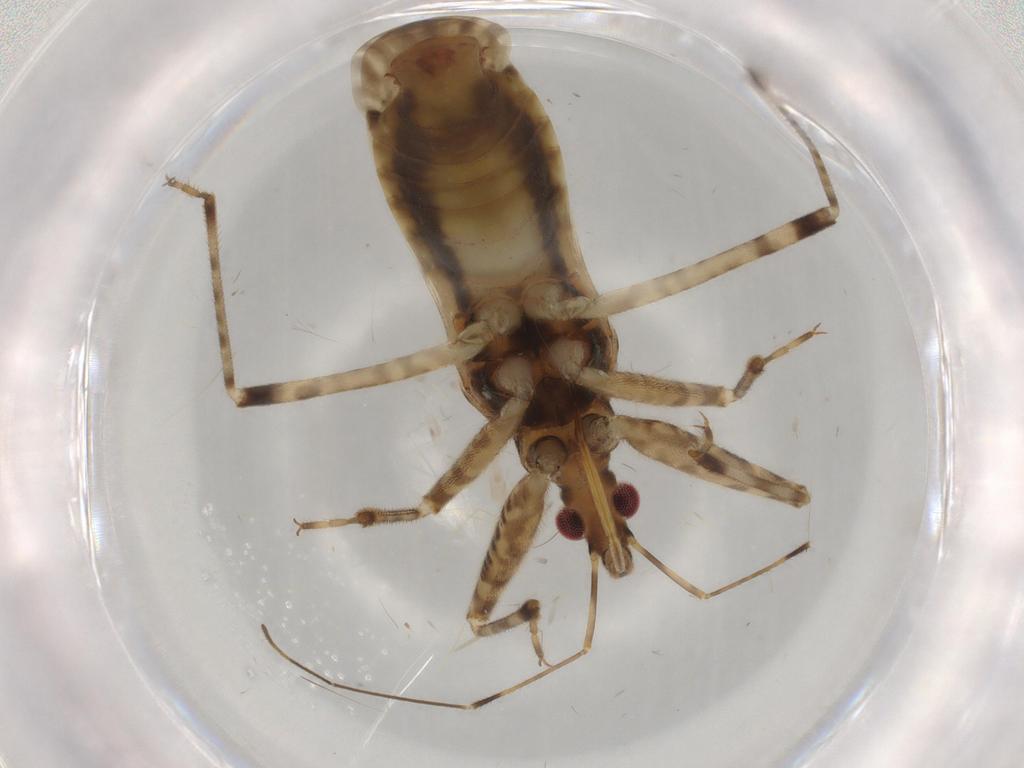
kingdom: Animalia
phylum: Arthropoda
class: Insecta
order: Hemiptera
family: Nabidae
